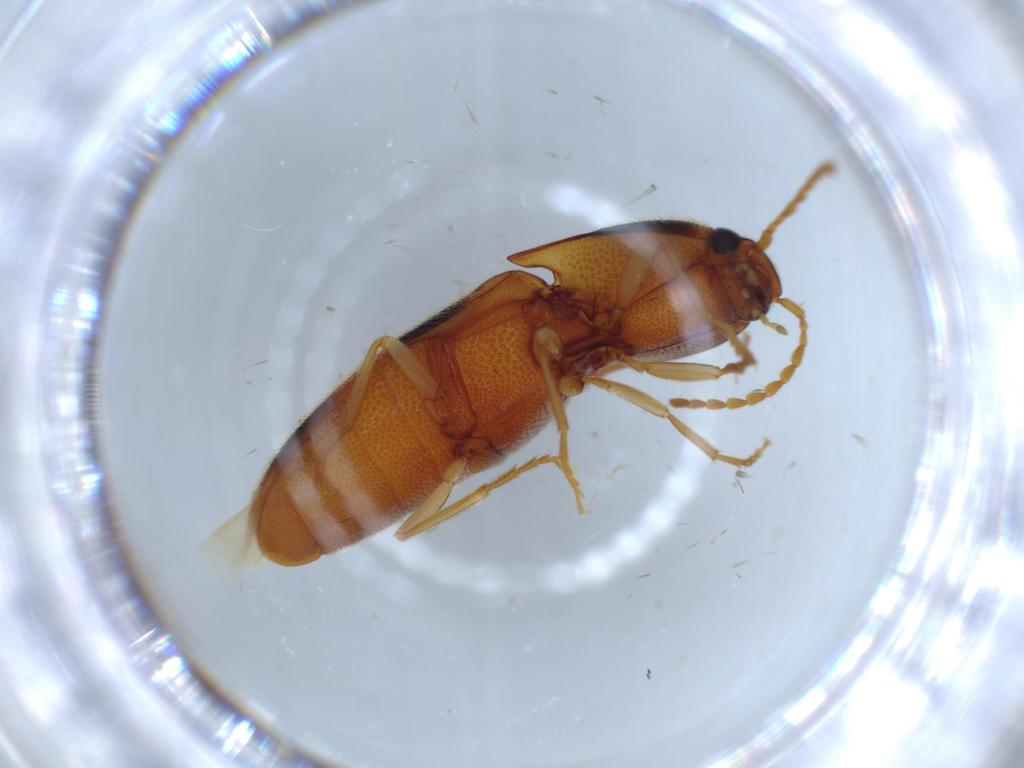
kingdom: Animalia
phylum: Arthropoda
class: Insecta
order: Coleoptera
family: Elateridae
